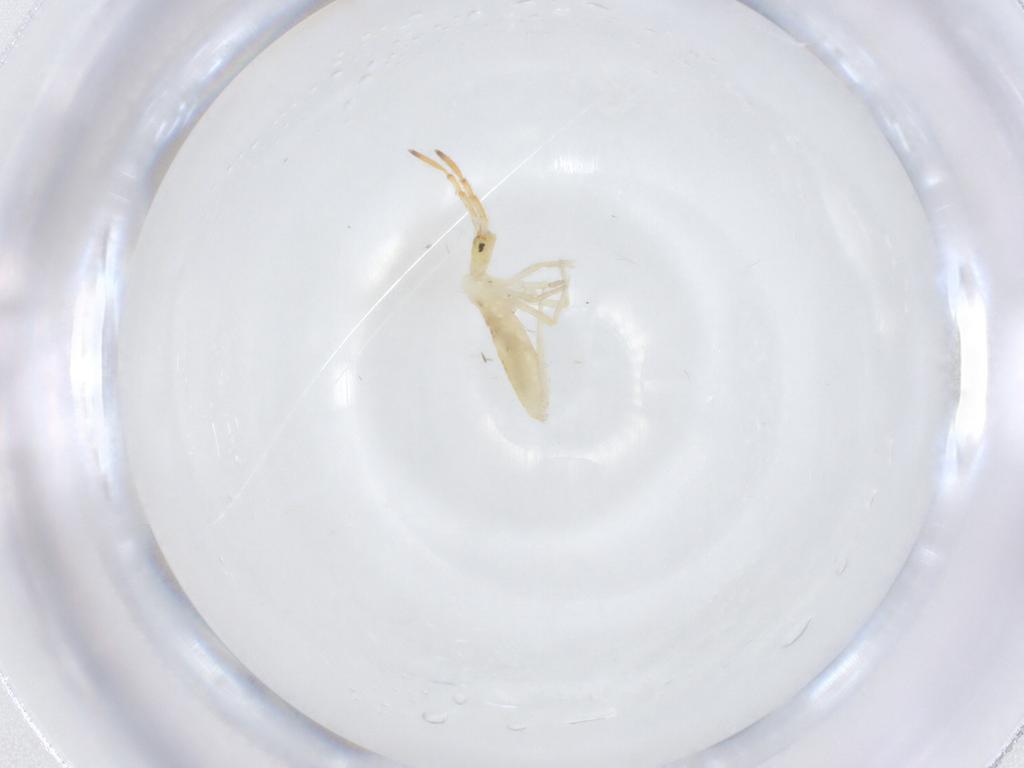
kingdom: Animalia
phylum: Arthropoda
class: Collembola
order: Entomobryomorpha
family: Entomobryidae
